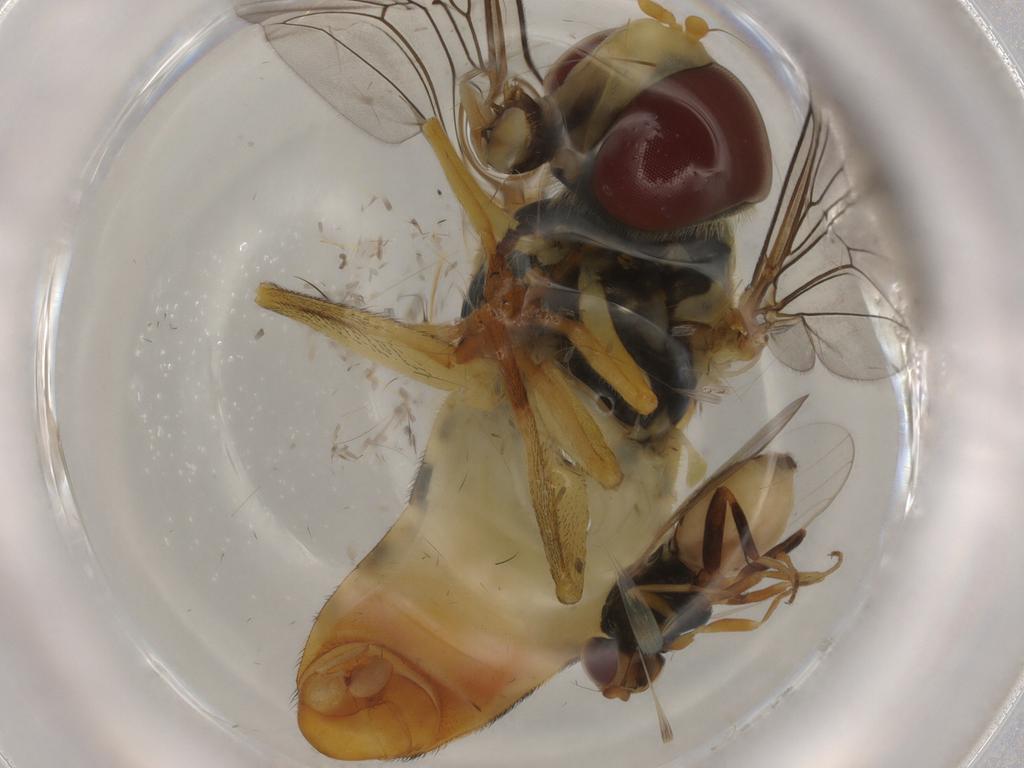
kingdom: Animalia
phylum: Arthropoda
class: Insecta
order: Diptera
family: Syrphidae
